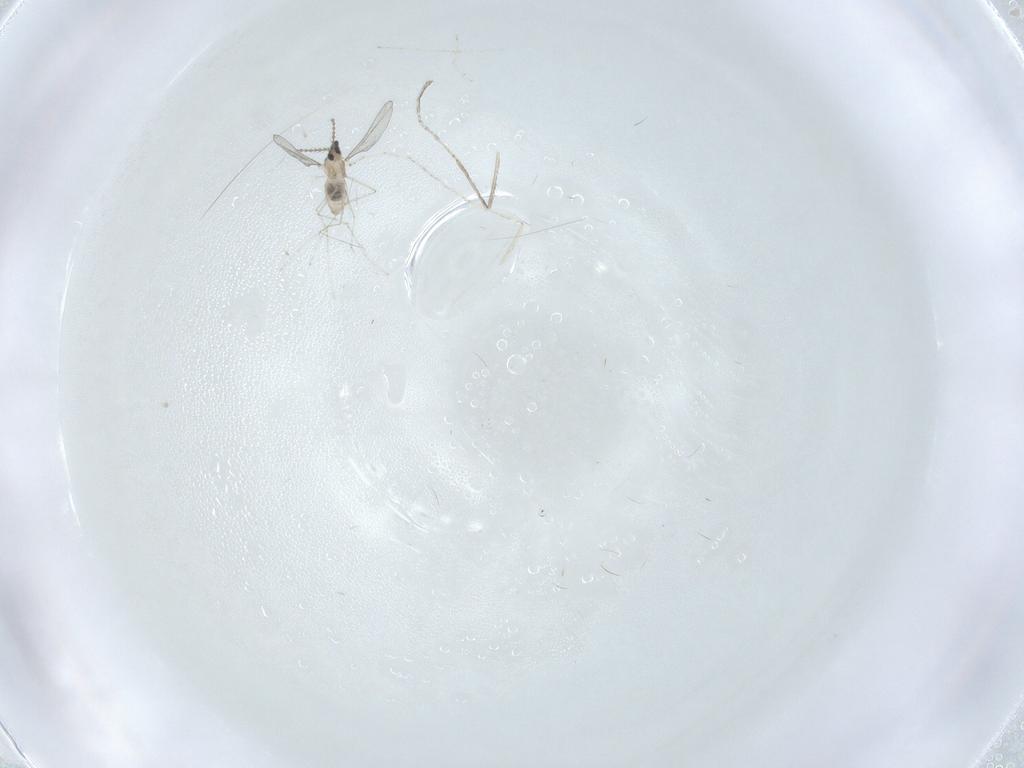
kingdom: Animalia
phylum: Arthropoda
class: Insecta
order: Diptera
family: Cecidomyiidae
